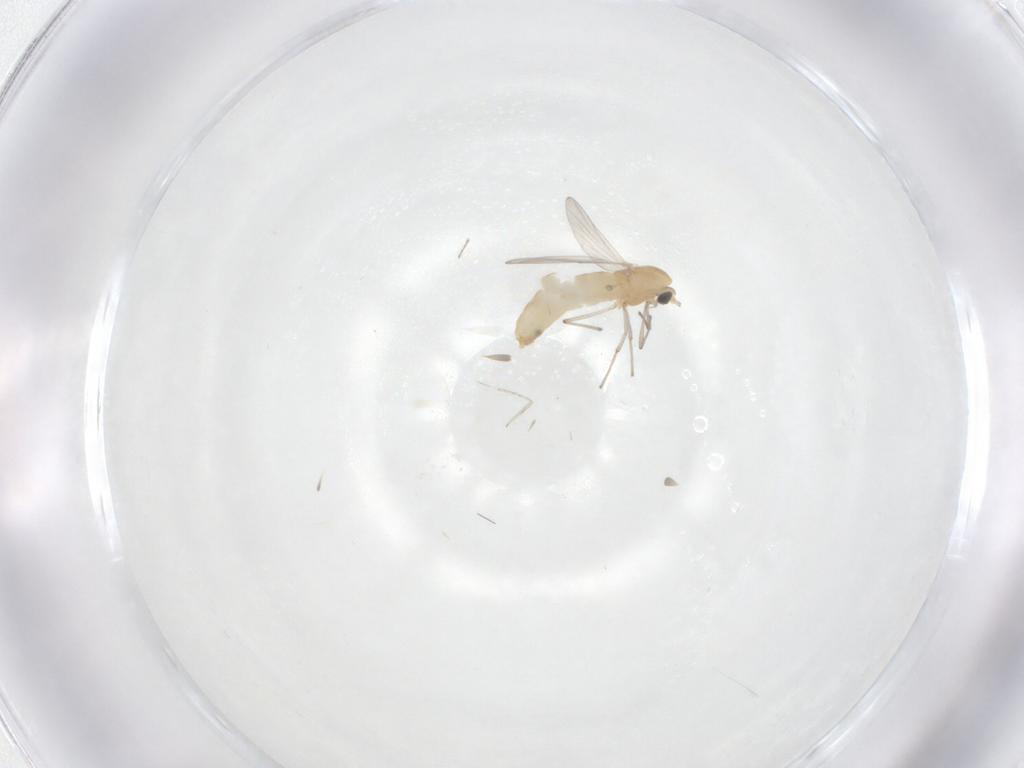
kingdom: Animalia
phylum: Arthropoda
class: Insecta
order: Diptera
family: Chironomidae
